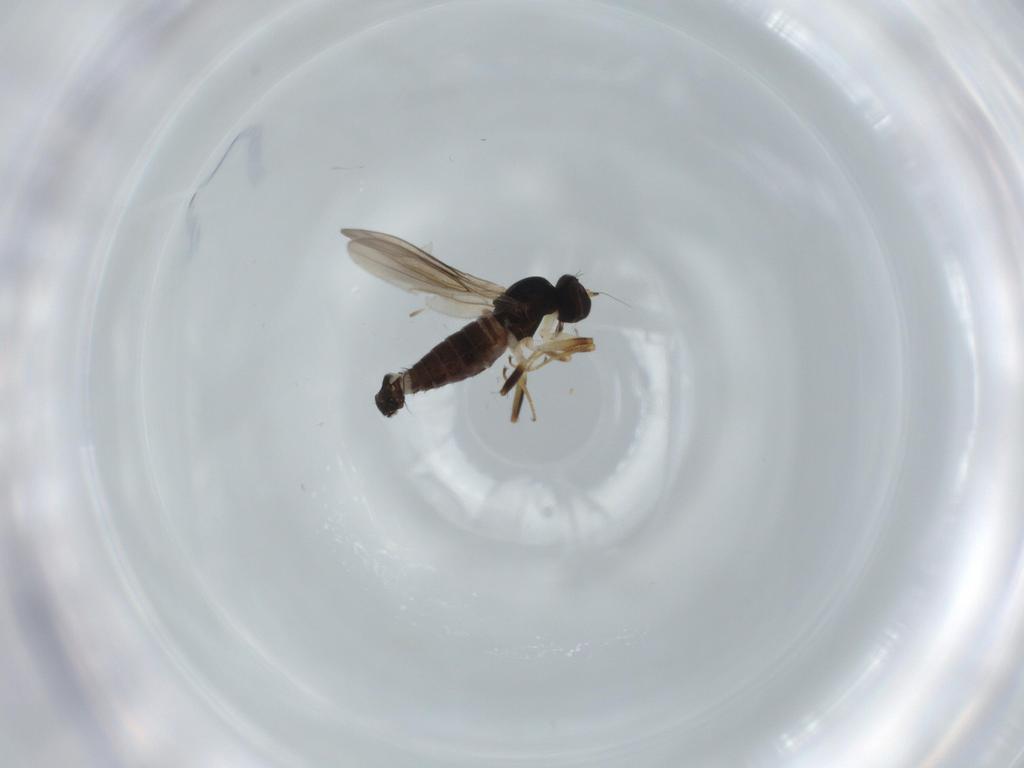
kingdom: Animalia
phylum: Arthropoda
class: Insecta
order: Diptera
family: Hybotidae
